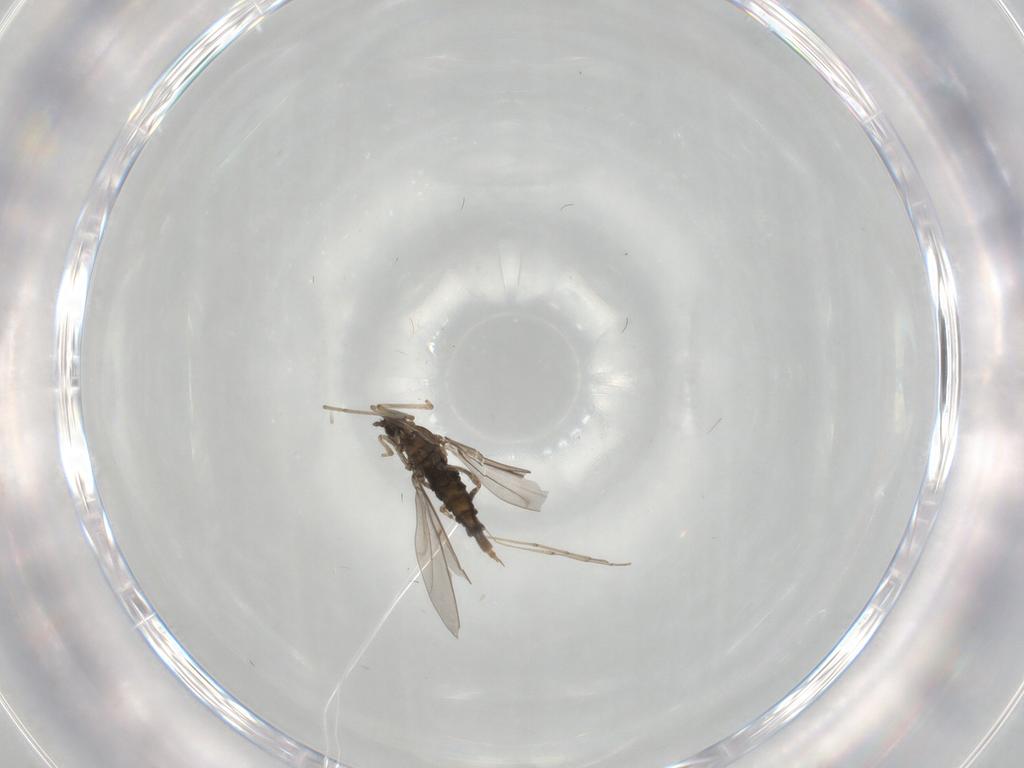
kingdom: Animalia
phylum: Arthropoda
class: Insecta
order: Diptera
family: Cecidomyiidae
